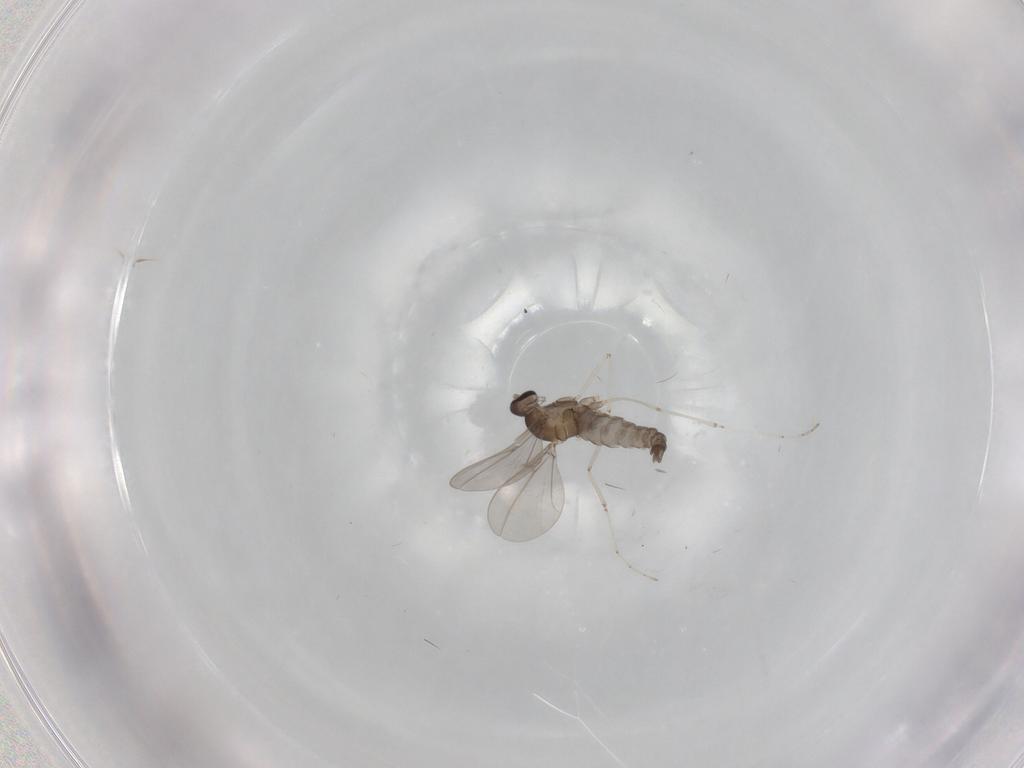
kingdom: Animalia
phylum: Arthropoda
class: Insecta
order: Diptera
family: Cecidomyiidae
